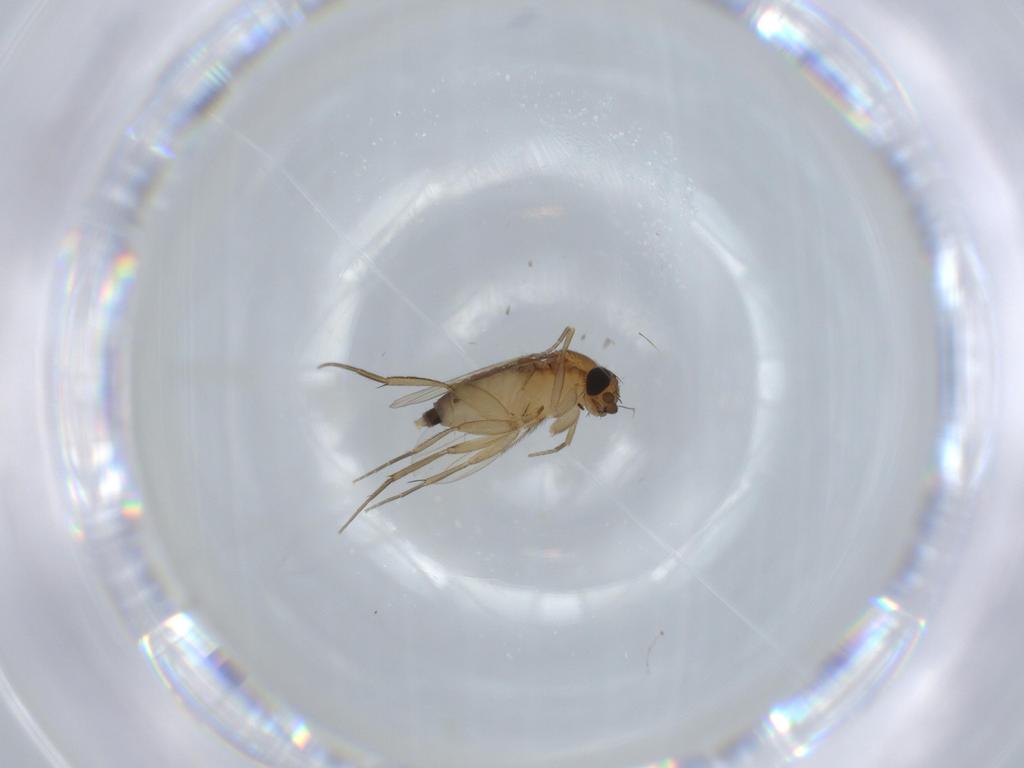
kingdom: Animalia
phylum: Arthropoda
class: Insecta
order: Diptera
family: Phoridae
